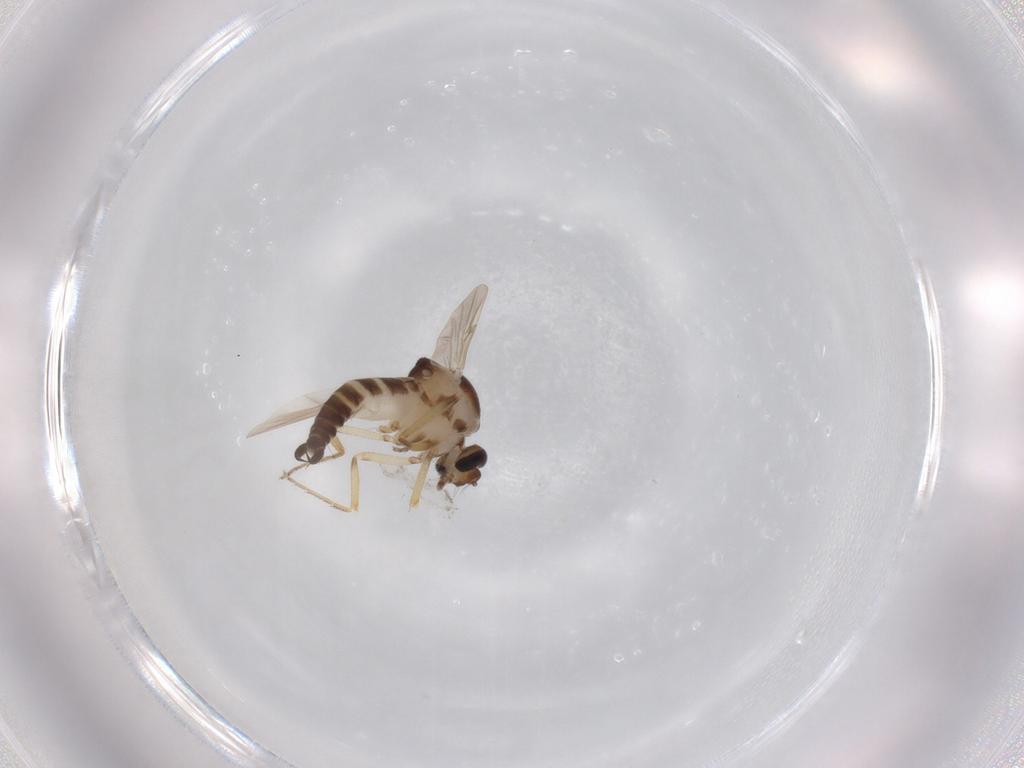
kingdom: Animalia
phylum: Arthropoda
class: Insecta
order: Diptera
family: Ceratopogonidae
